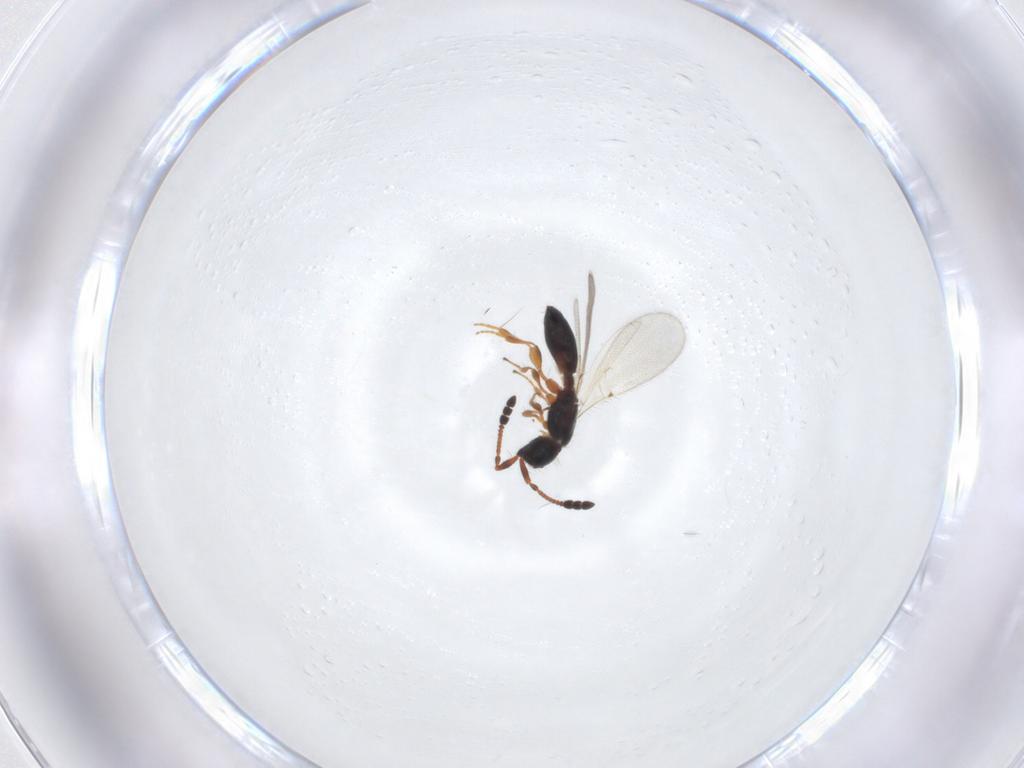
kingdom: Animalia
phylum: Arthropoda
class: Insecta
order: Hymenoptera
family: Diapriidae
